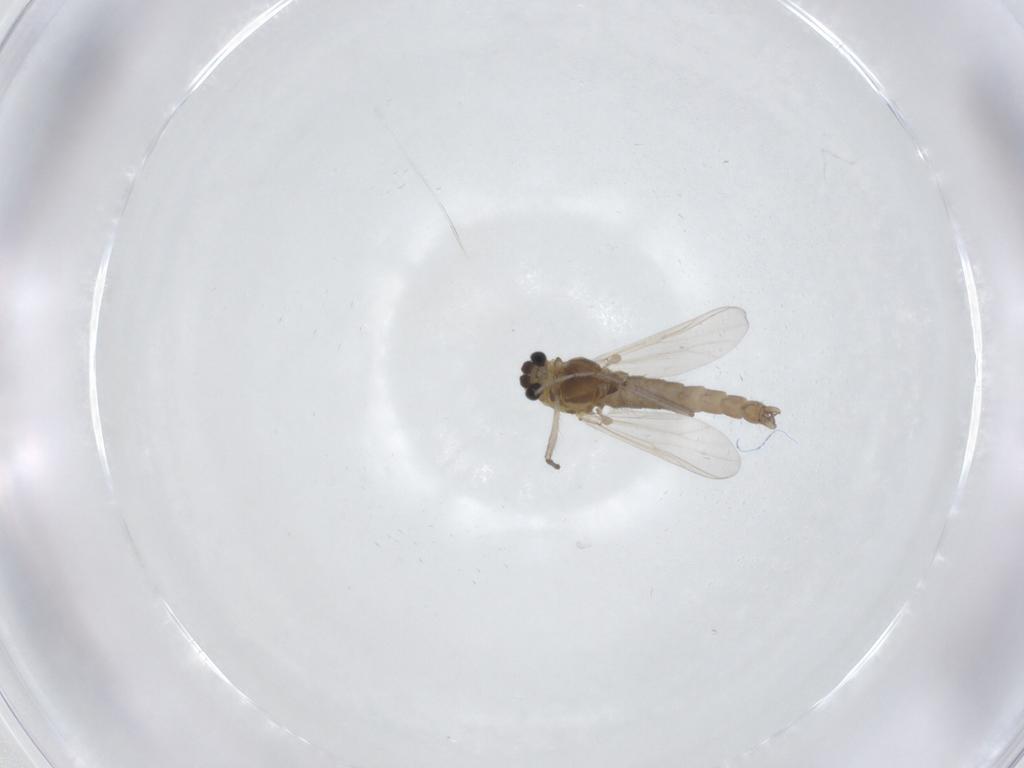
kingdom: Animalia
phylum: Arthropoda
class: Insecta
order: Diptera
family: Chironomidae
